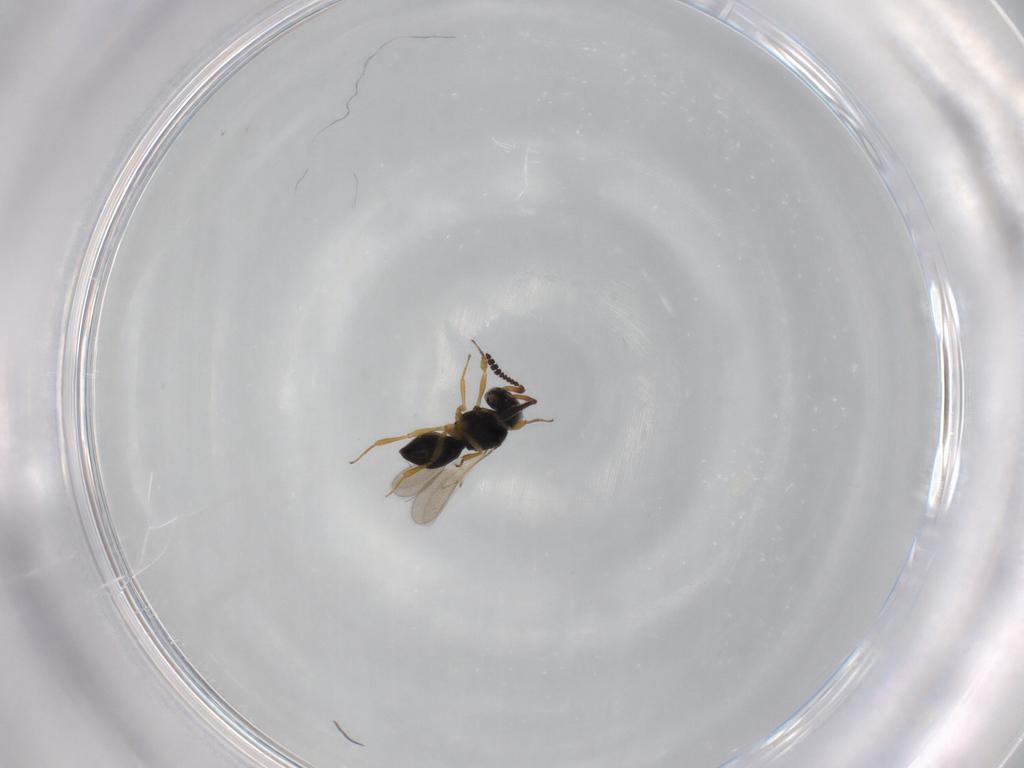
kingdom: Animalia
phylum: Arthropoda
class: Insecta
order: Hymenoptera
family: Scelionidae
